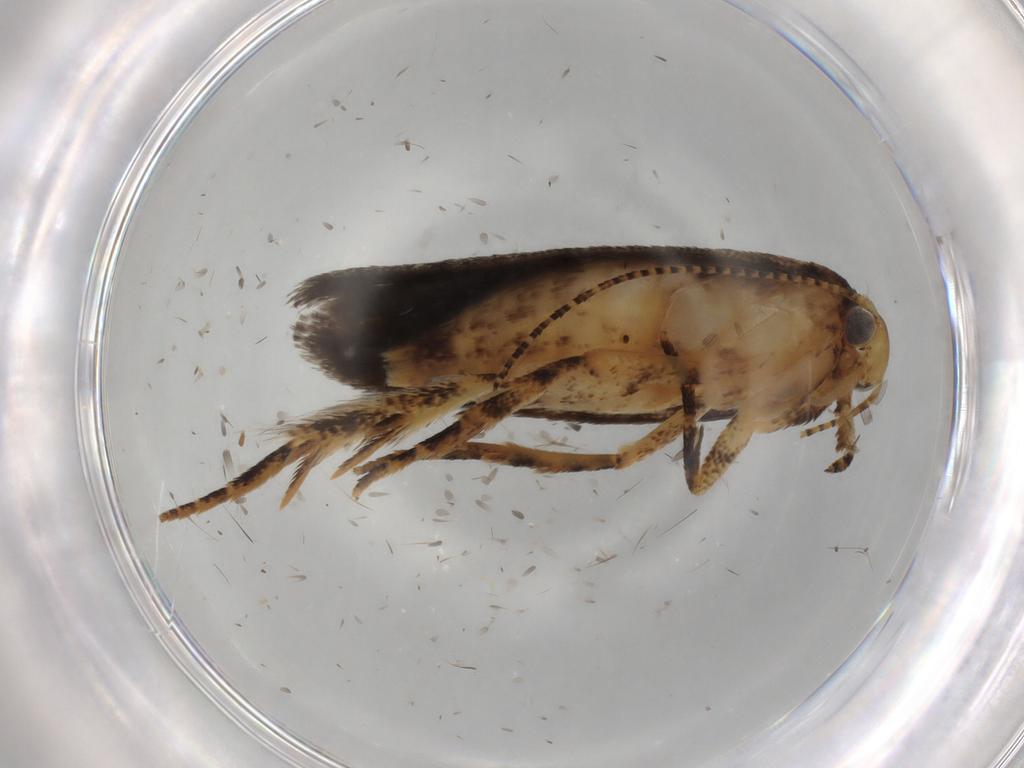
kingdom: Animalia
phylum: Arthropoda
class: Insecta
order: Lepidoptera
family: Gelechiidae
